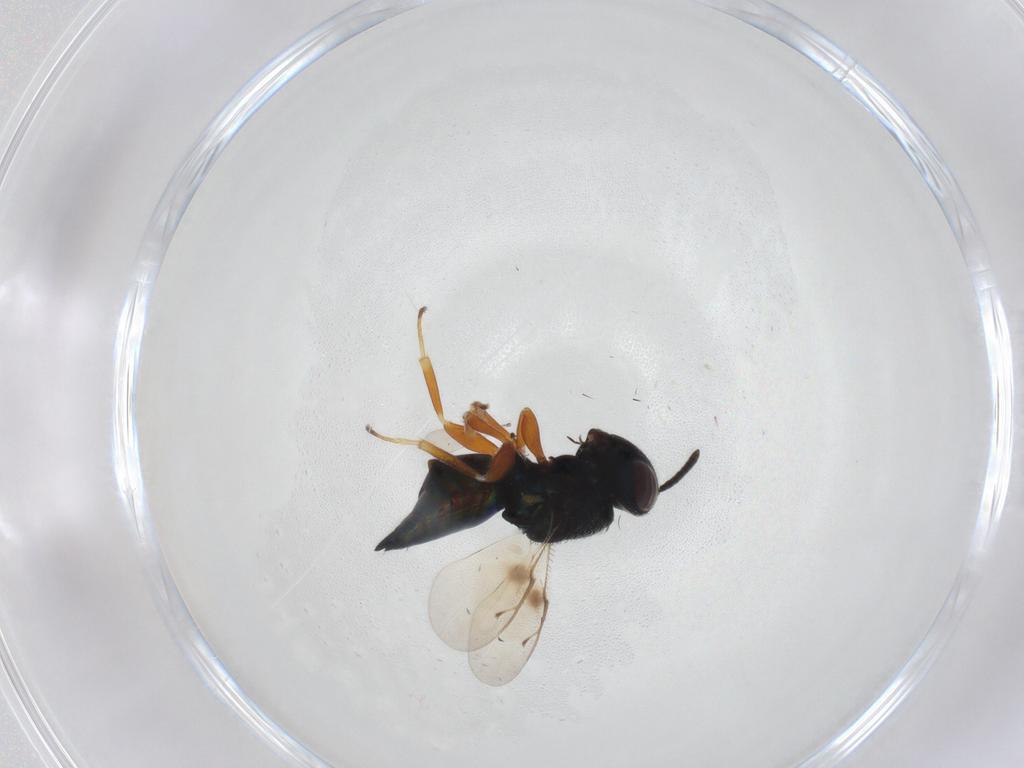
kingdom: Animalia
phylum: Arthropoda
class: Insecta
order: Hymenoptera
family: Pteromalidae
